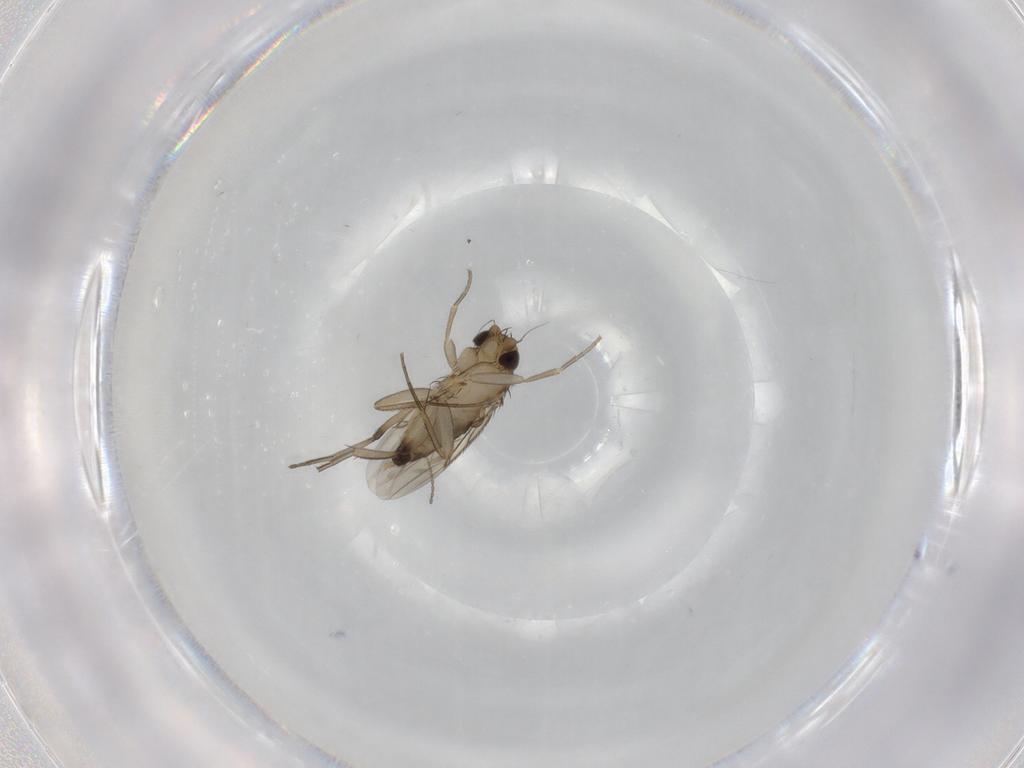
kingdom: Animalia
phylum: Arthropoda
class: Insecta
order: Diptera
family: Cecidomyiidae
